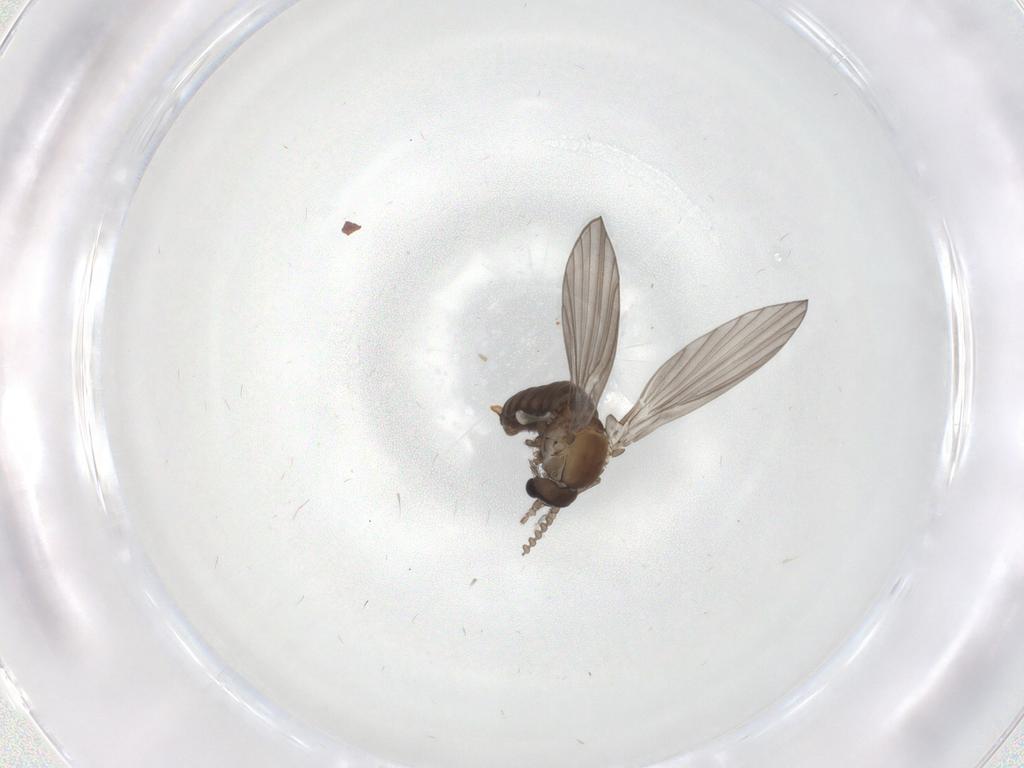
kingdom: Animalia
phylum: Arthropoda
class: Insecta
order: Diptera
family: Psychodidae
